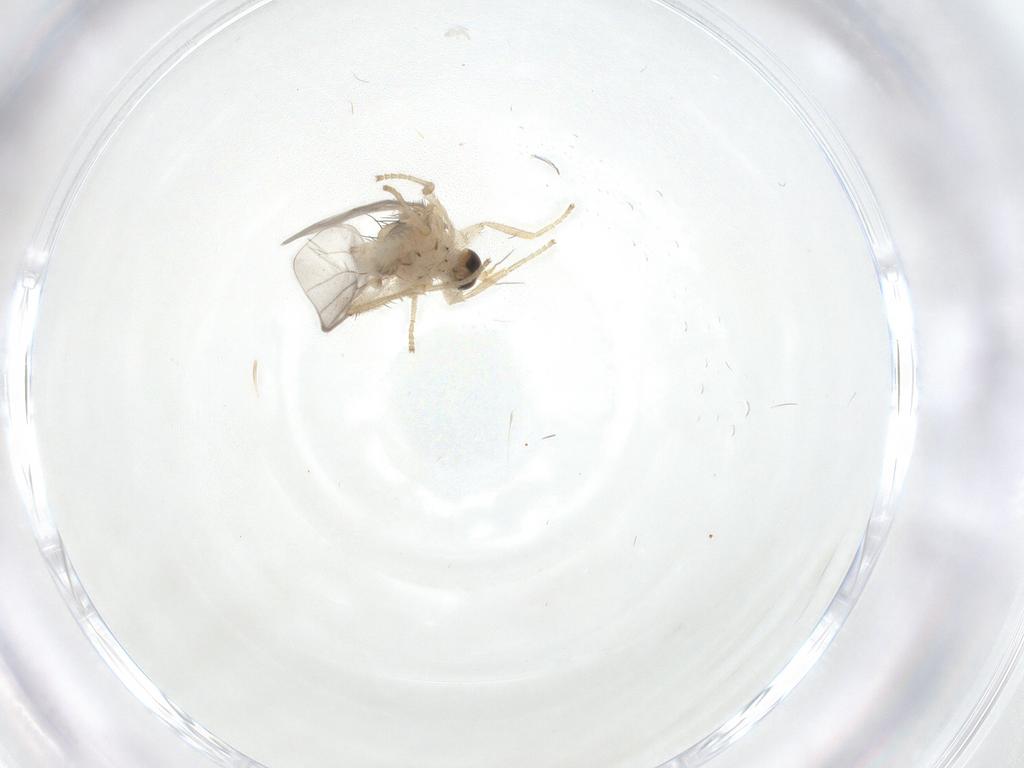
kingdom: Animalia
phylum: Arthropoda
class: Insecta
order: Diptera
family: Hybotidae
